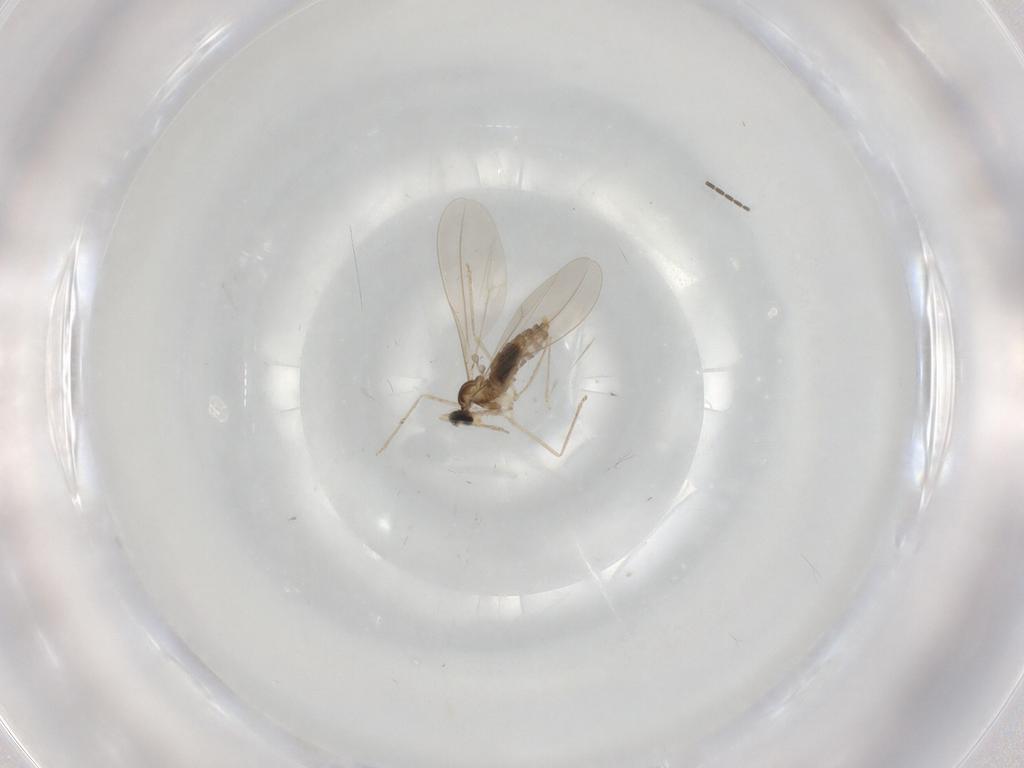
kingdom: Animalia
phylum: Arthropoda
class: Insecta
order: Diptera
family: Sciaridae
